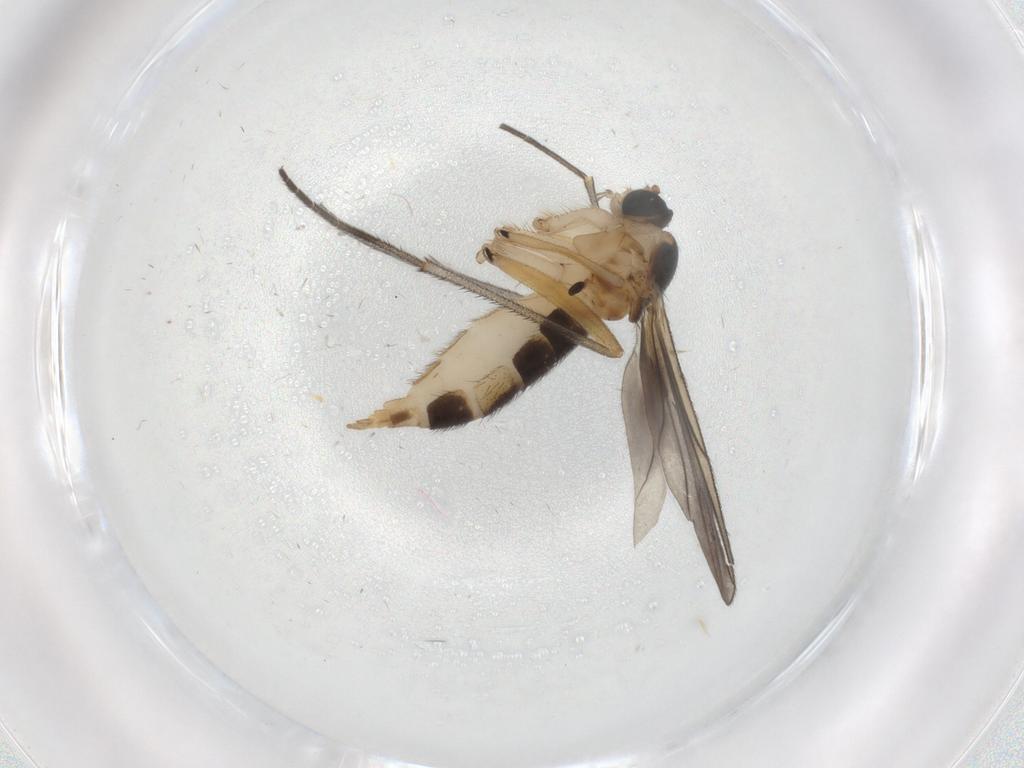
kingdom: Animalia
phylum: Arthropoda
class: Insecta
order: Diptera
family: Sciaridae
